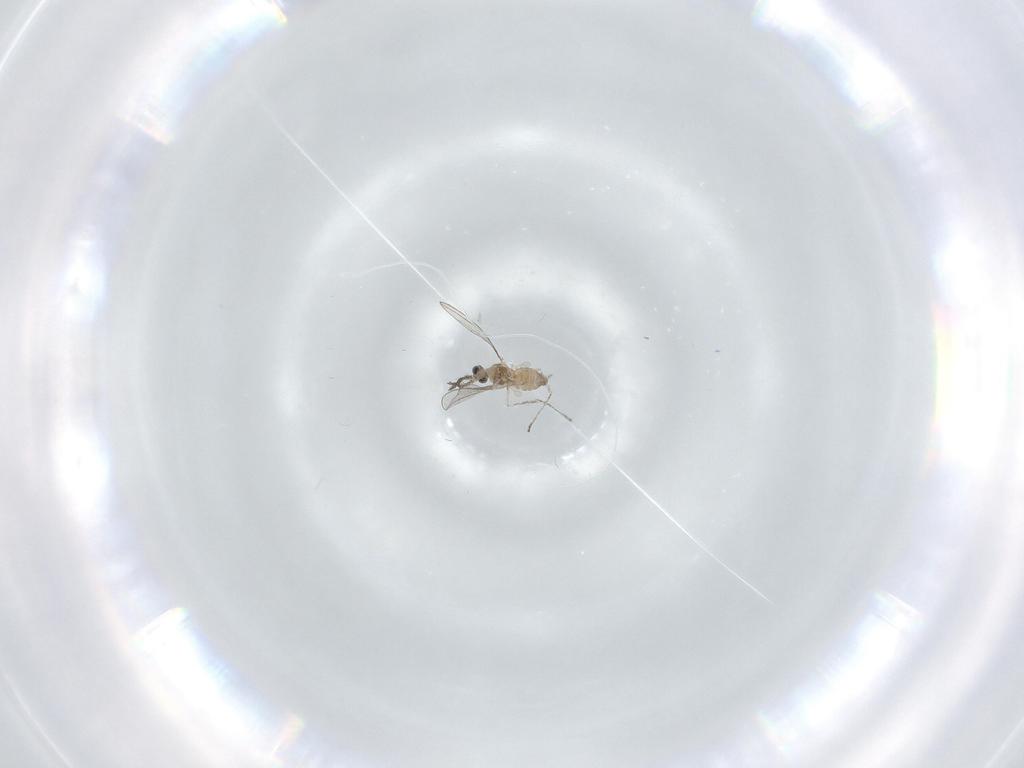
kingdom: Animalia
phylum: Arthropoda
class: Insecta
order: Diptera
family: Cecidomyiidae
